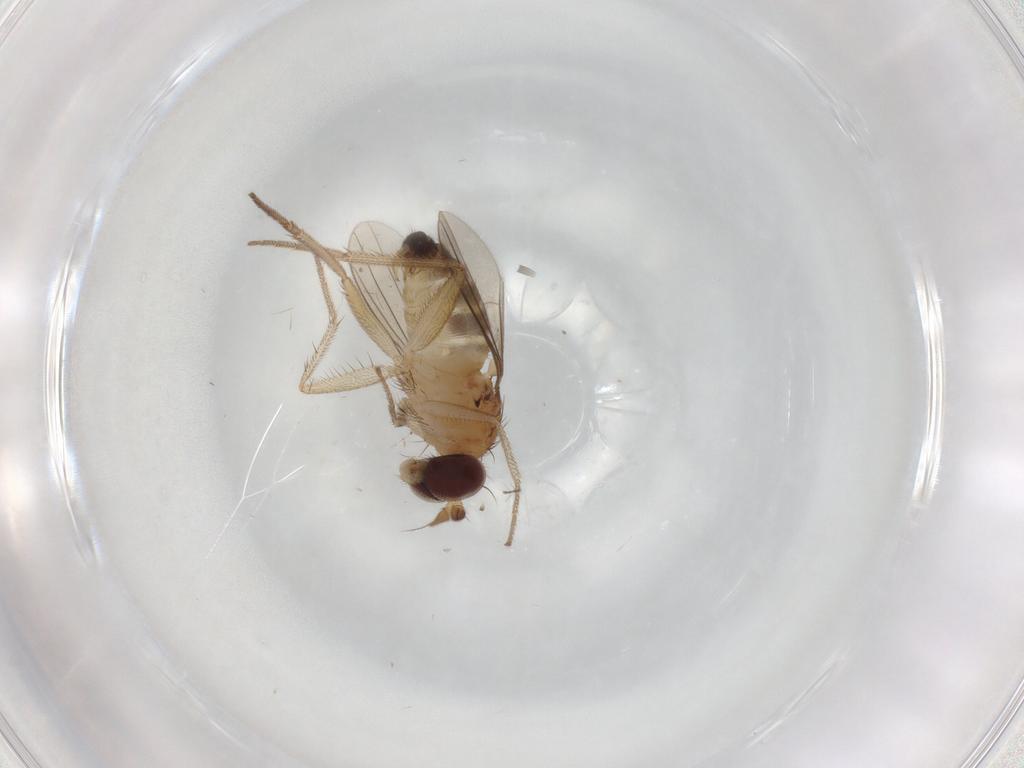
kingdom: Animalia
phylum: Arthropoda
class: Insecta
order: Diptera
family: Dolichopodidae
